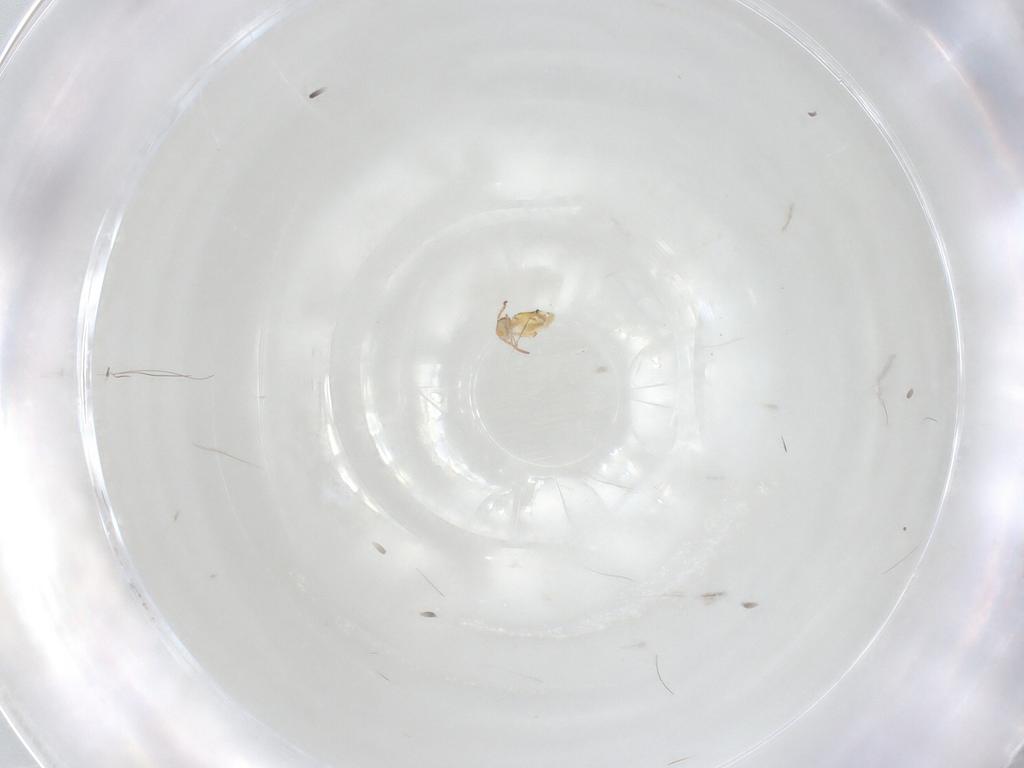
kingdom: Animalia
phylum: Arthropoda
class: Collembola
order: Symphypleona
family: Bourletiellidae
